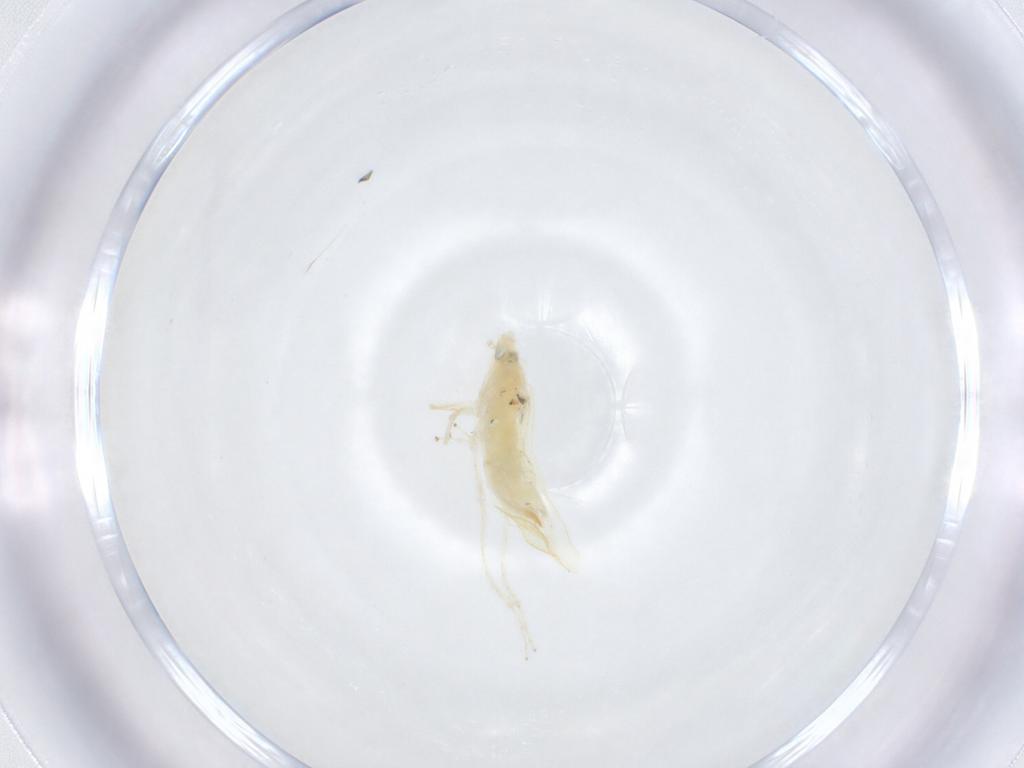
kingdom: Animalia
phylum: Arthropoda
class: Insecta
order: Hemiptera
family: Cicadellidae
